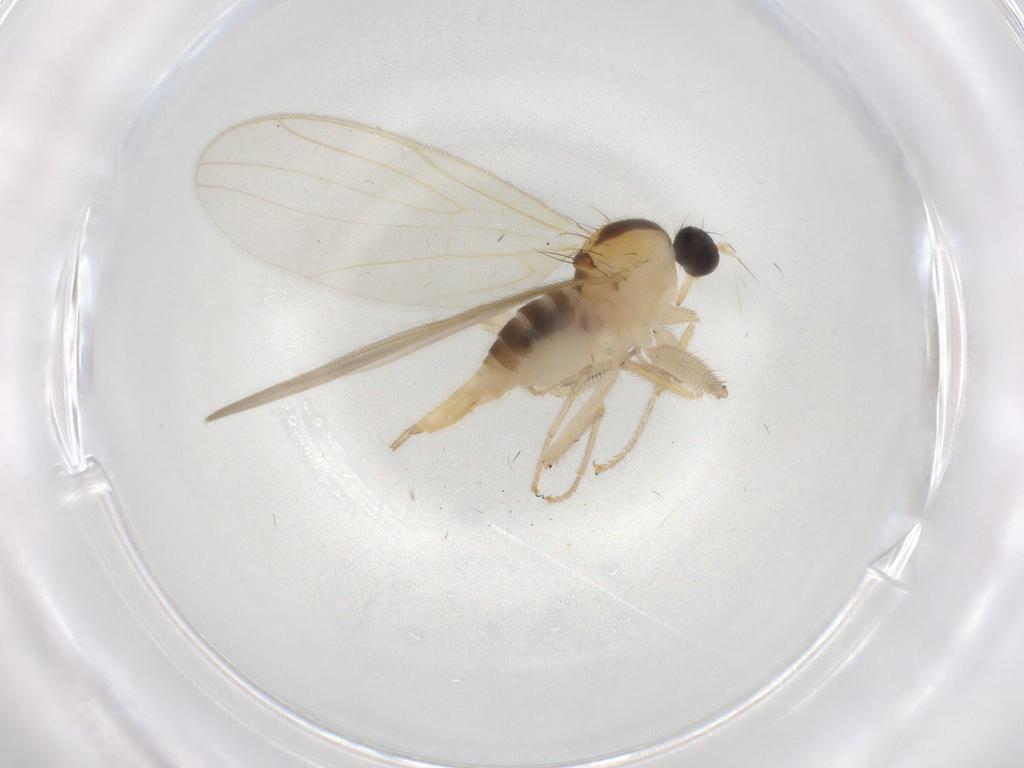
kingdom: Animalia
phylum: Arthropoda
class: Insecta
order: Diptera
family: Hybotidae
